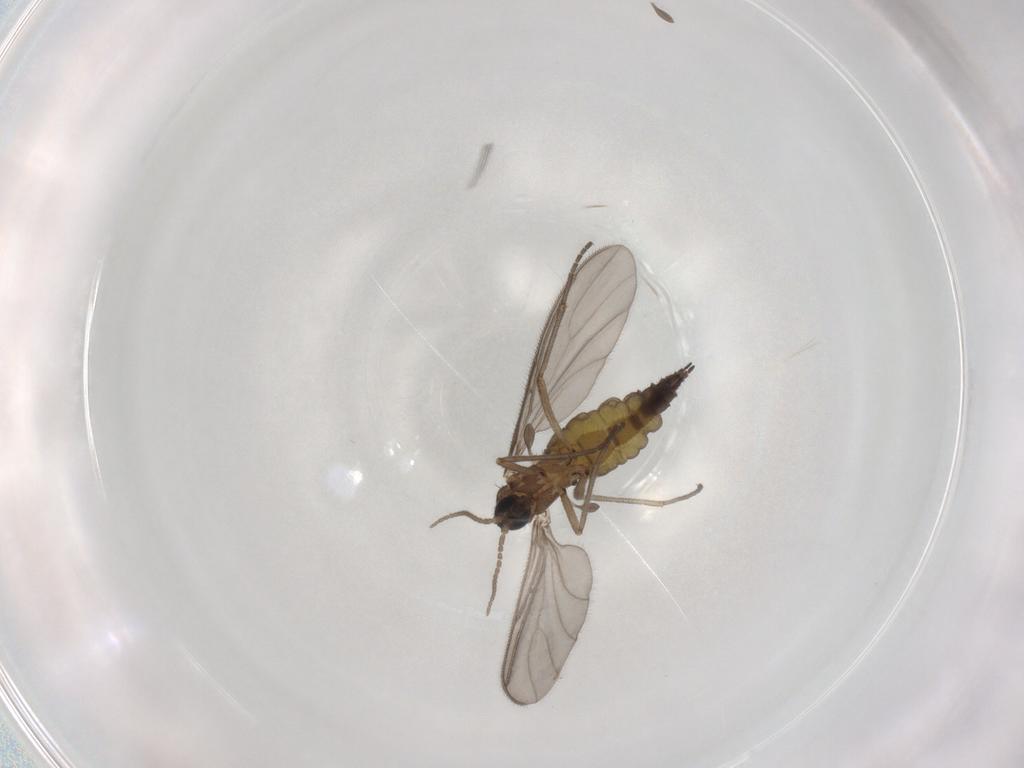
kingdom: Animalia
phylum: Arthropoda
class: Insecta
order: Diptera
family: Sciaridae
